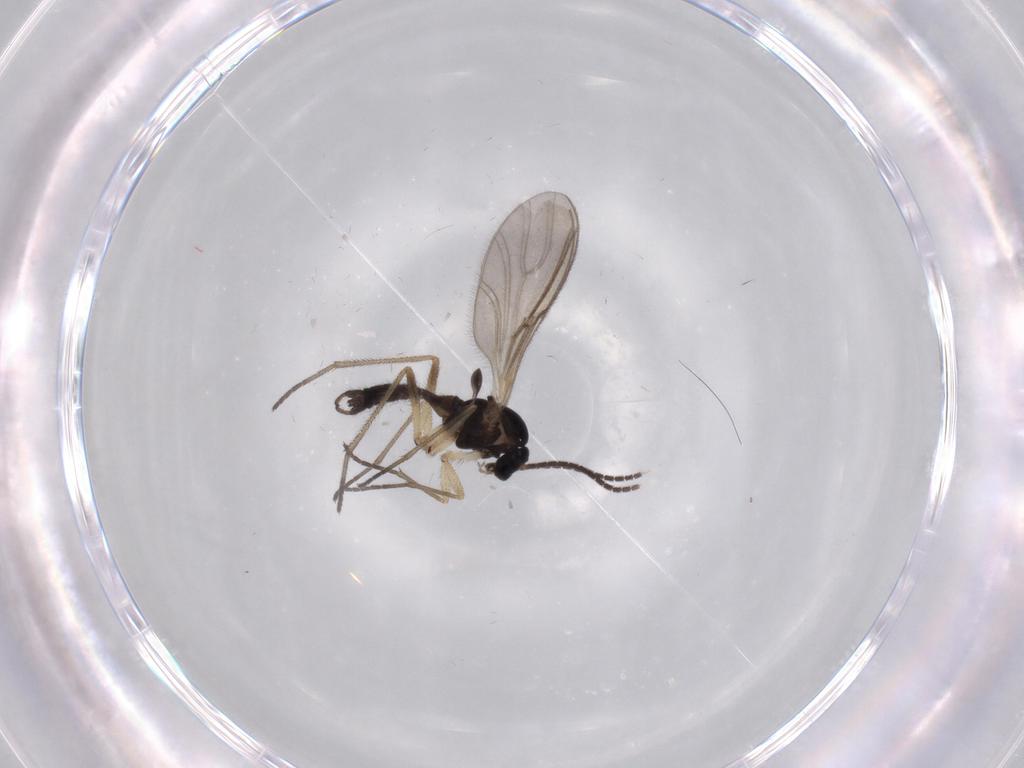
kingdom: Animalia
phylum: Arthropoda
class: Insecta
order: Diptera
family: Sciaridae
